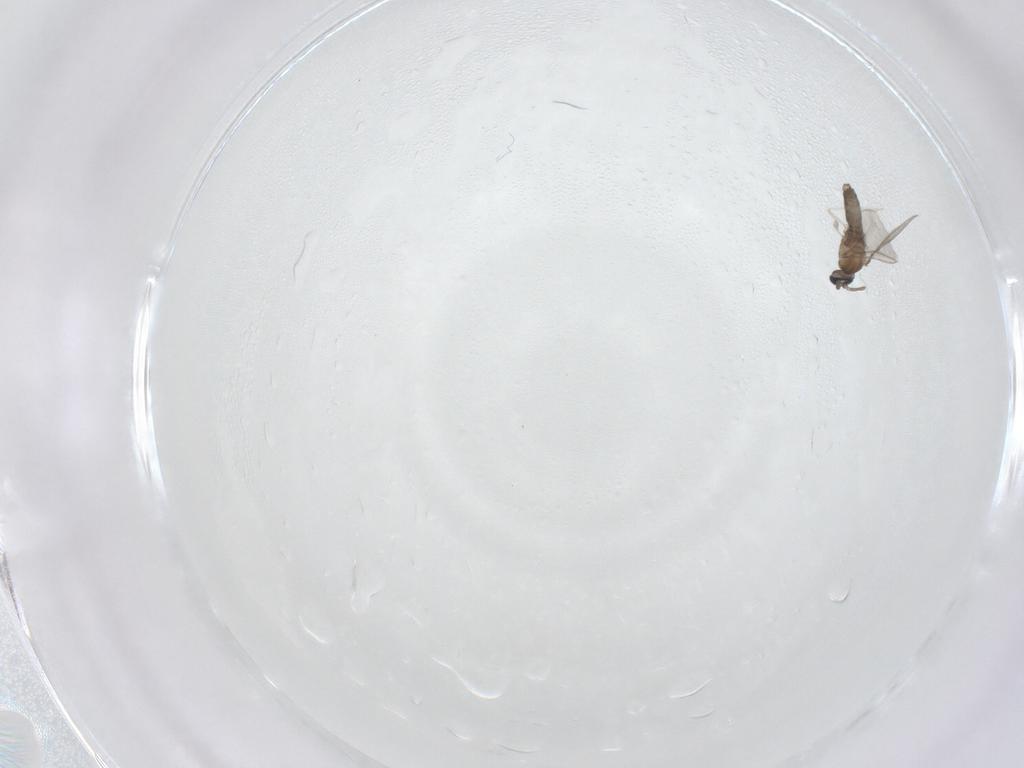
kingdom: Animalia
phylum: Arthropoda
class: Insecta
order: Diptera
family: Cecidomyiidae
